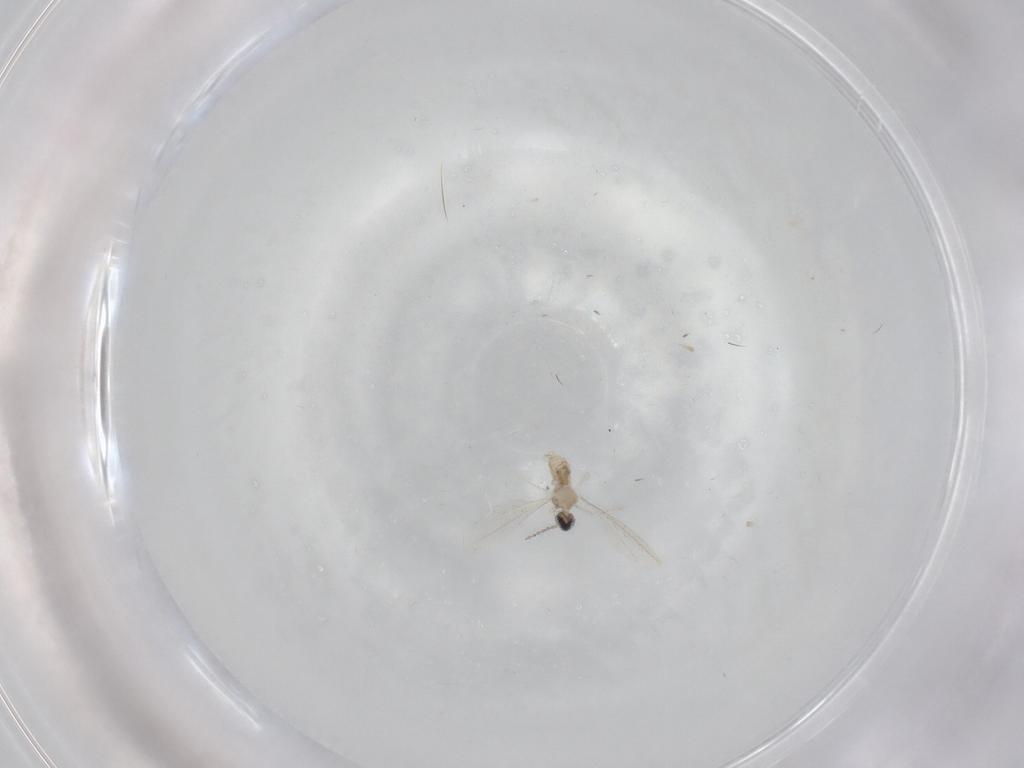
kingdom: Animalia
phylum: Arthropoda
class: Insecta
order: Diptera
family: Cecidomyiidae
